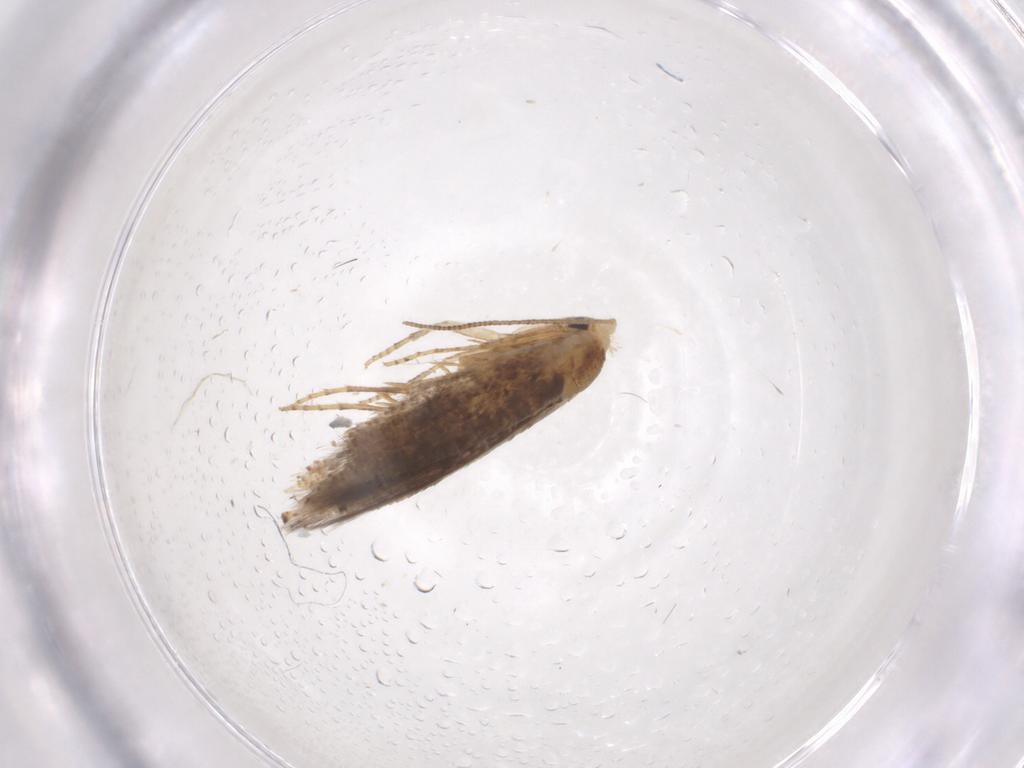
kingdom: Animalia
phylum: Arthropoda
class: Insecta
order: Lepidoptera
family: Bucculatricidae
